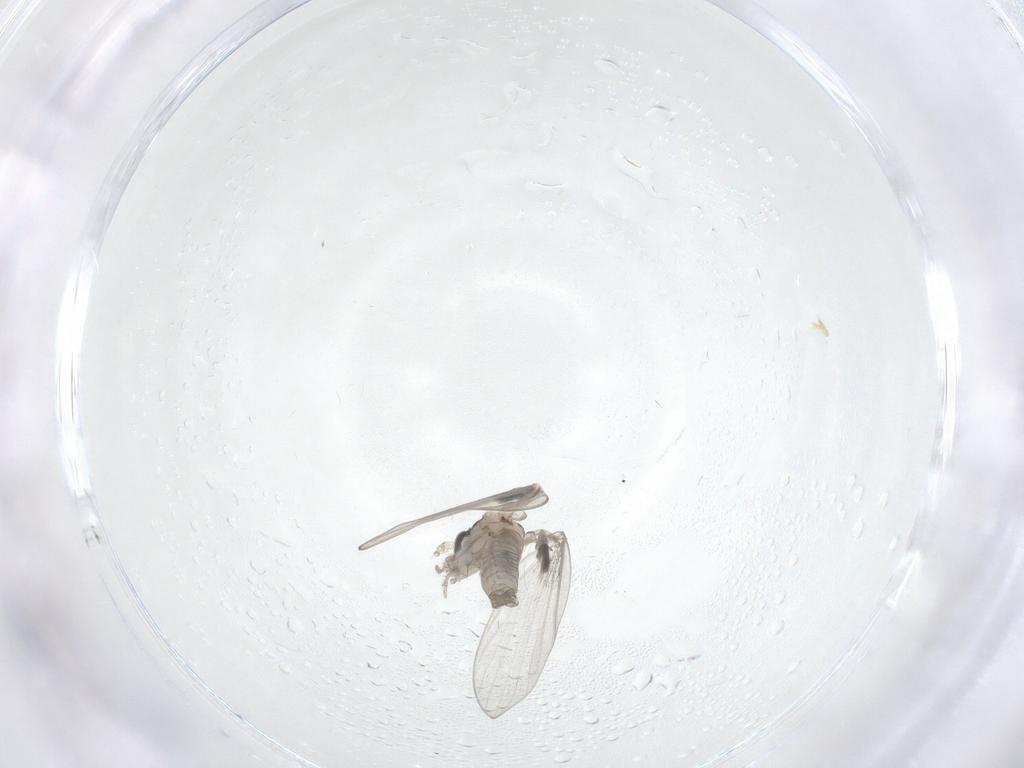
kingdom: Animalia
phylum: Arthropoda
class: Insecta
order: Diptera
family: Chironomidae
